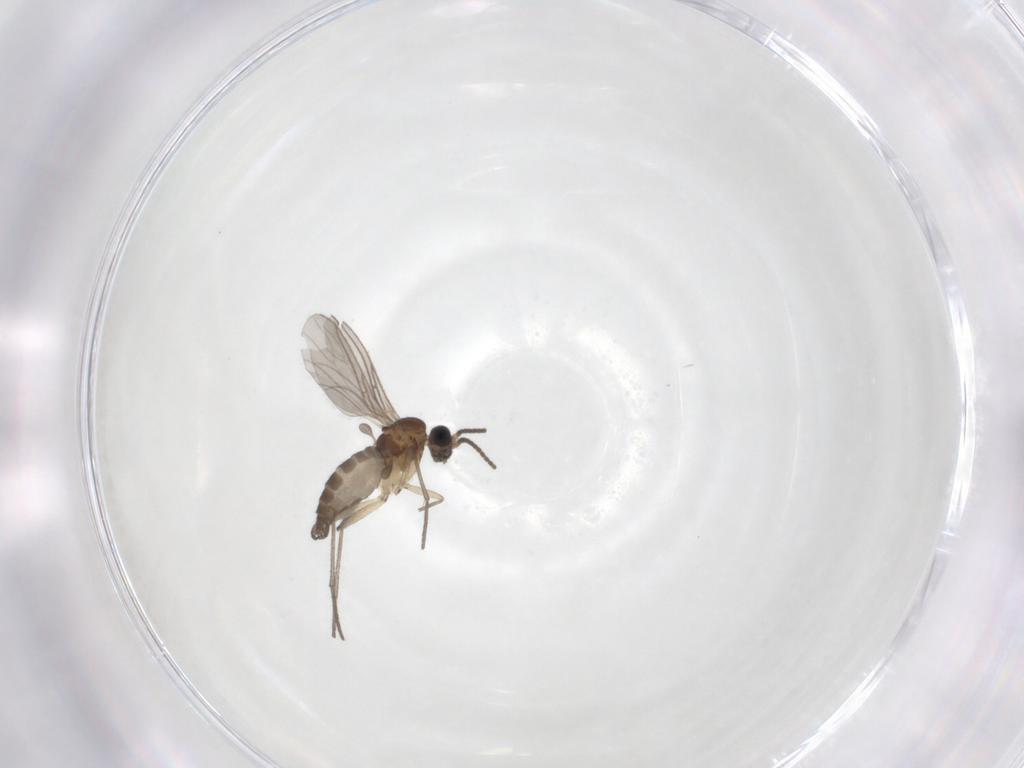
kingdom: Animalia
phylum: Arthropoda
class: Insecta
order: Diptera
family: Sciaridae
